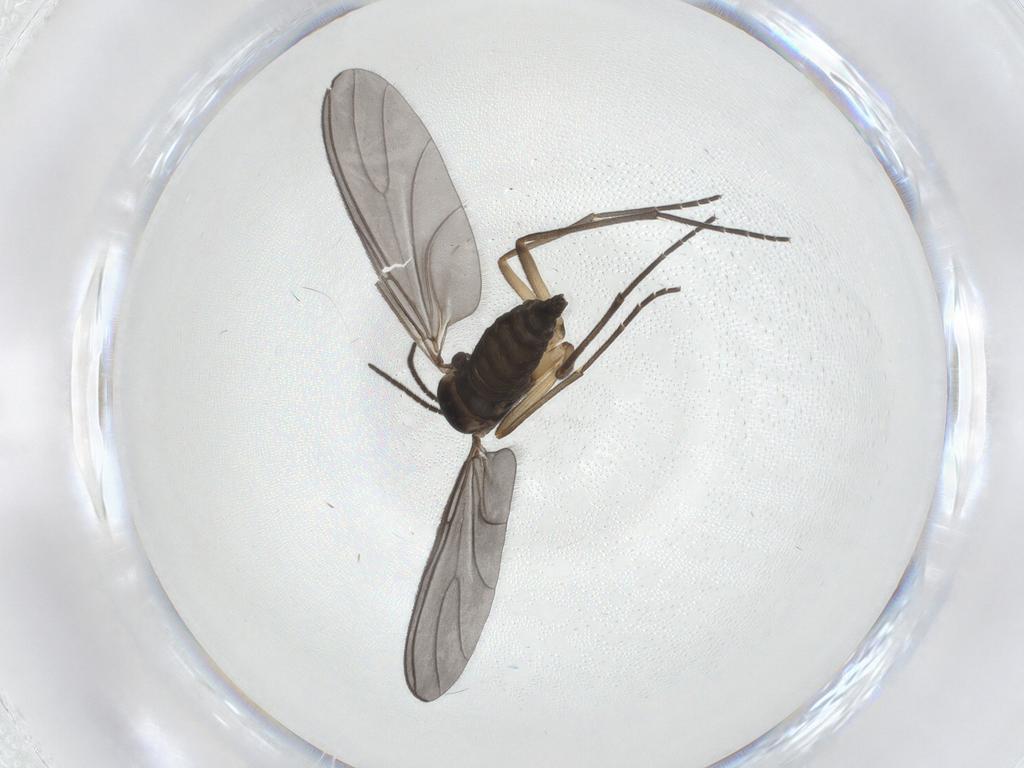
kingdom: Animalia
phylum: Arthropoda
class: Insecta
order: Diptera
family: Sciaridae
